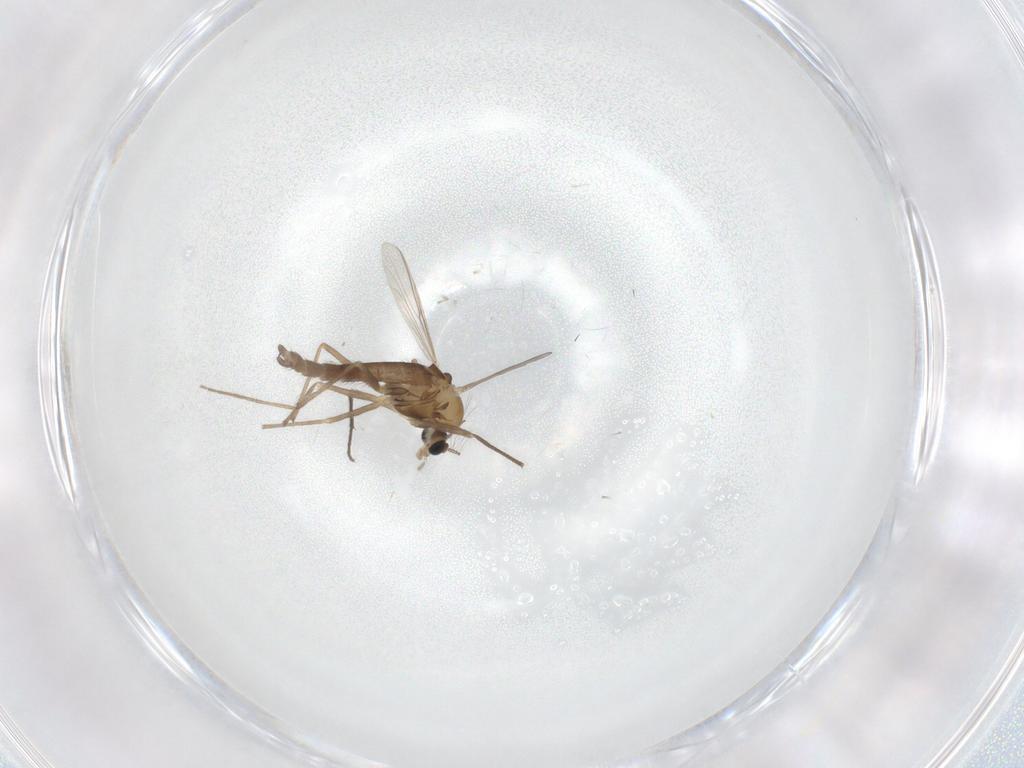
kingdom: Animalia
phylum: Arthropoda
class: Insecta
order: Diptera
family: Chironomidae
